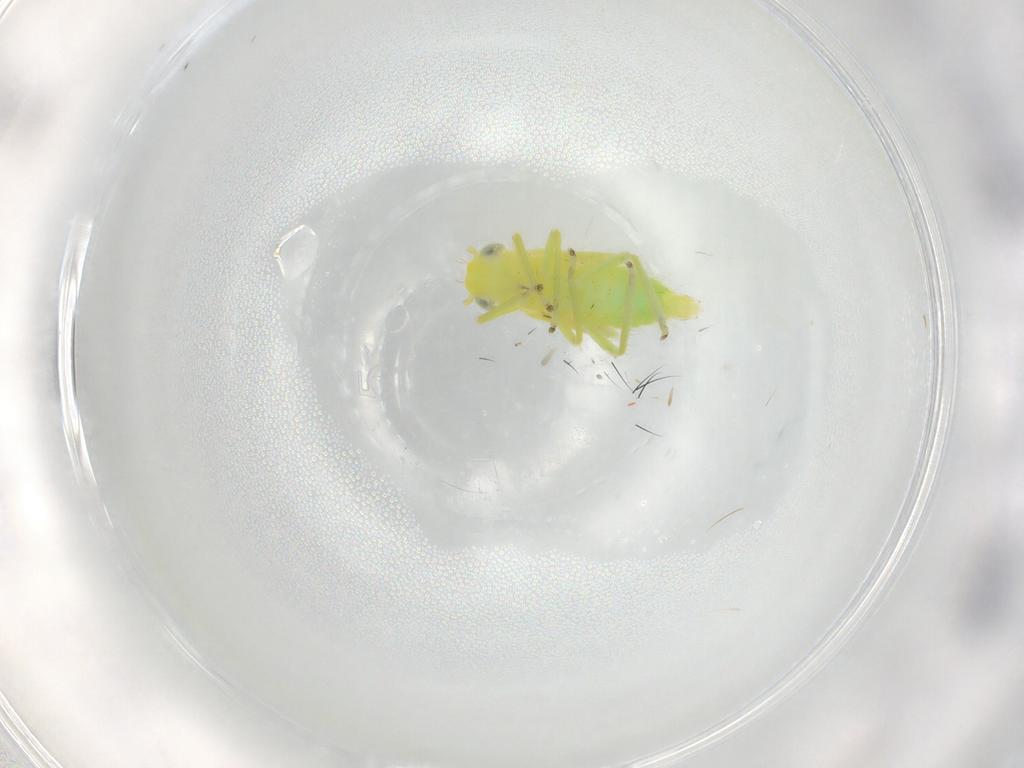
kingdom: Animalia
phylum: Arthropoda
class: Insecta
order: Hemiptera
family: Cicadellidae
